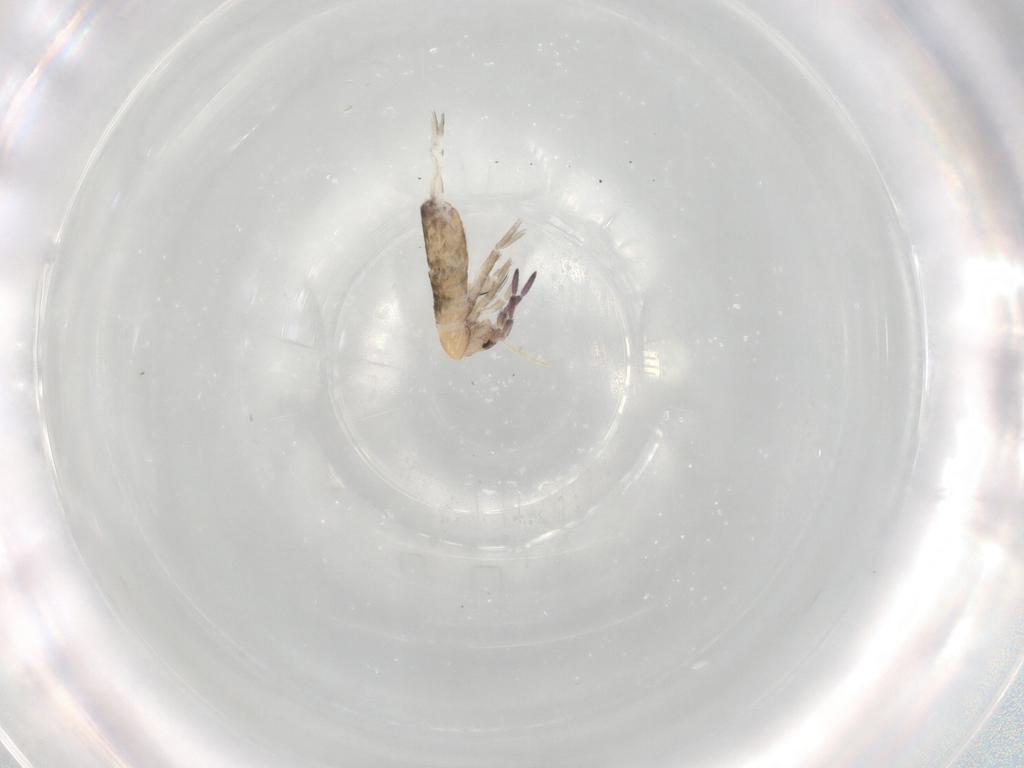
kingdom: Animalia
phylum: Arthropoda
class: Collembola
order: Entomobryomorpha
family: Entomobryidae
